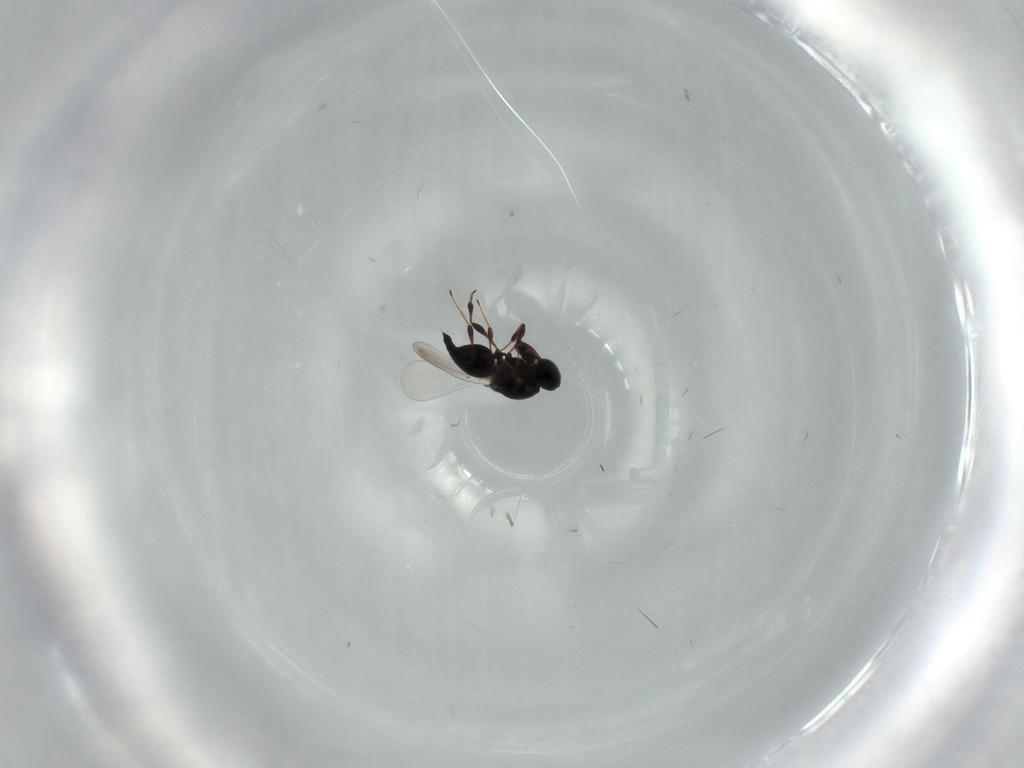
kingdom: Animalia
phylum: Arthropoda
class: Insecta
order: Hymenoptera
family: Platygastridae
